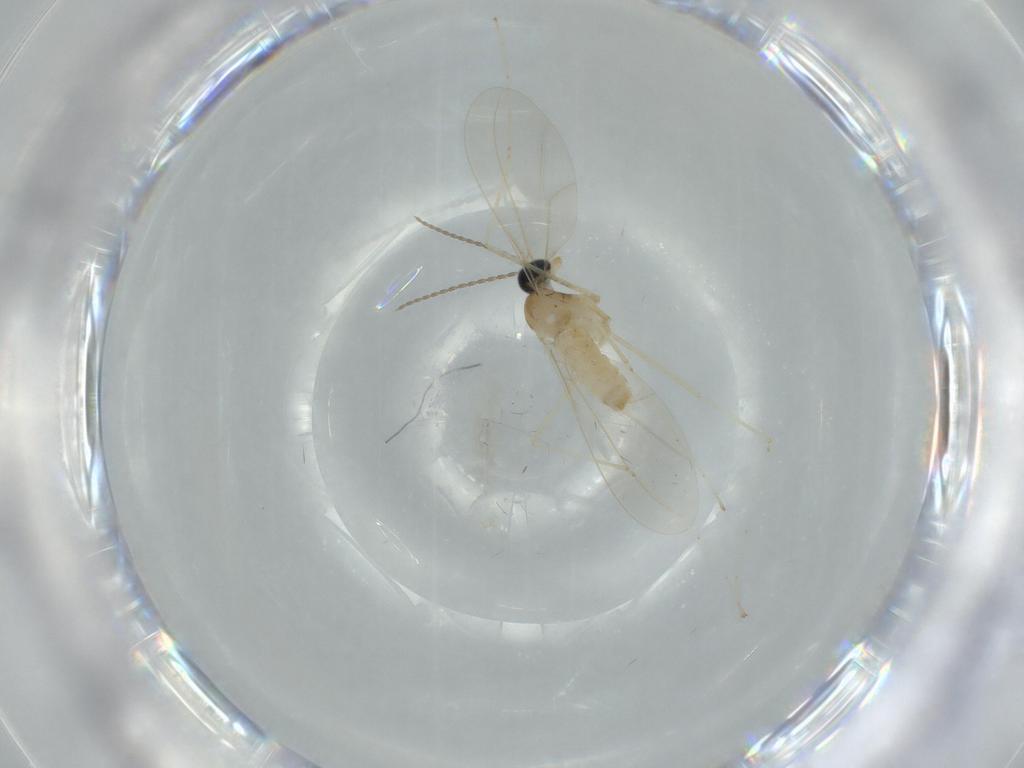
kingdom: Animalia
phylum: Arthropoda
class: Insecta
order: Diptera
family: Cecidomyiidae
